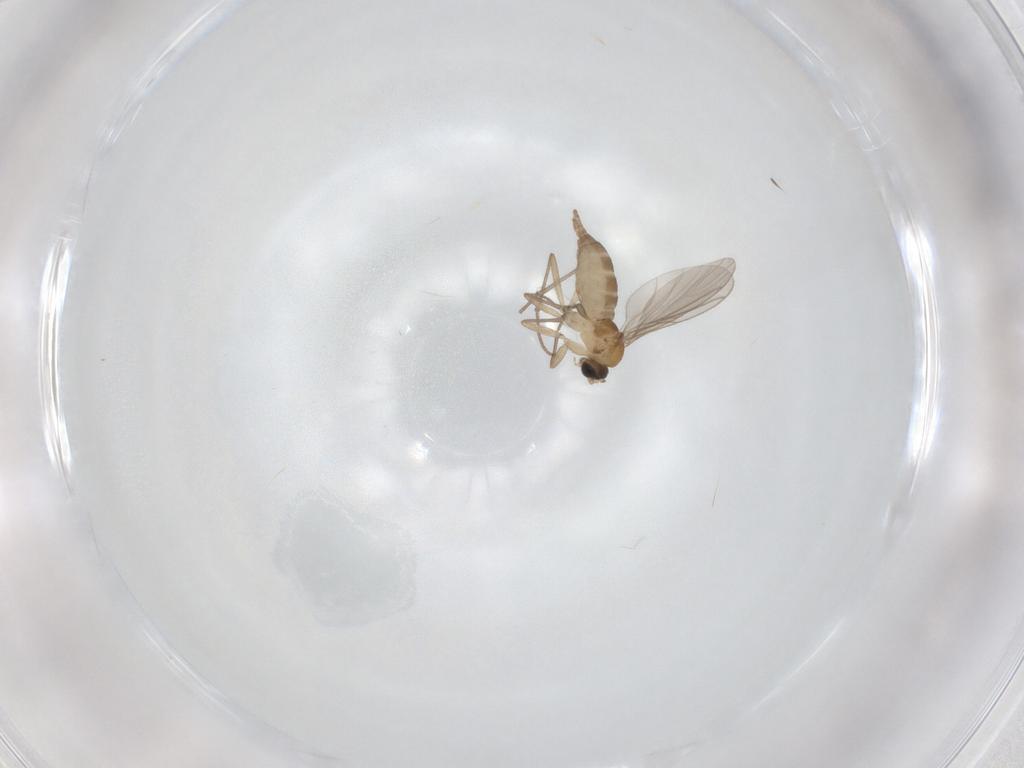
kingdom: Animalia
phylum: Arthropoda
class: Insecta
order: Diptera
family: Sciaridae
